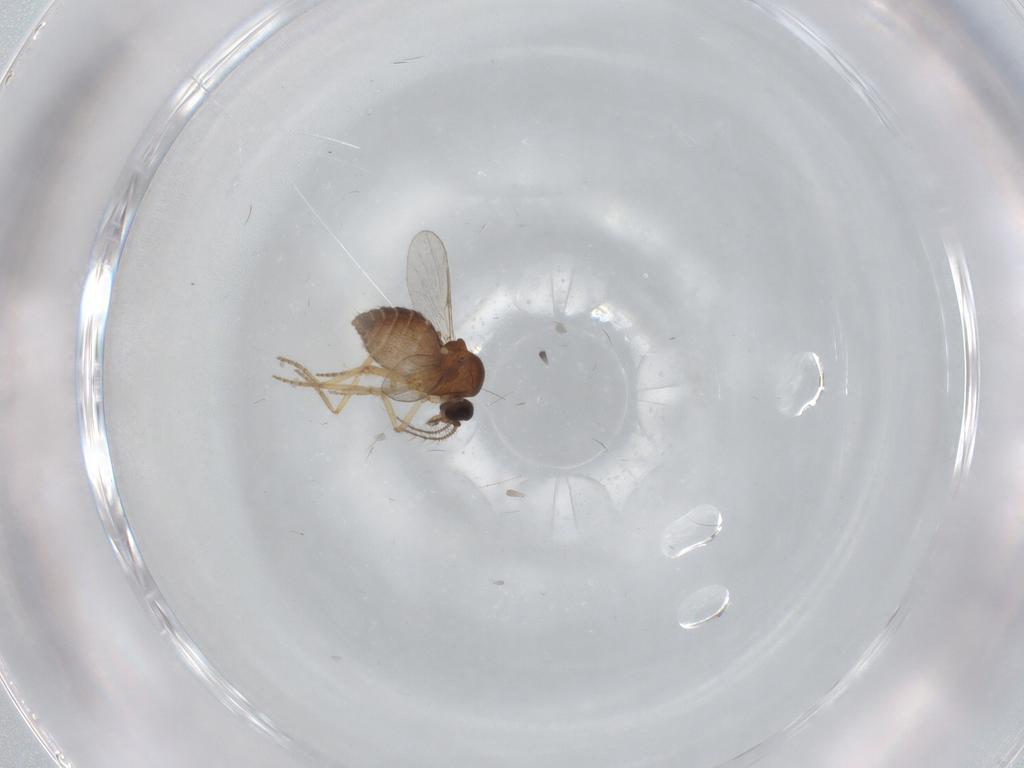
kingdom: Animalia
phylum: Arthropoda
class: Insecta
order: Diptera
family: Ceratopogonidae
